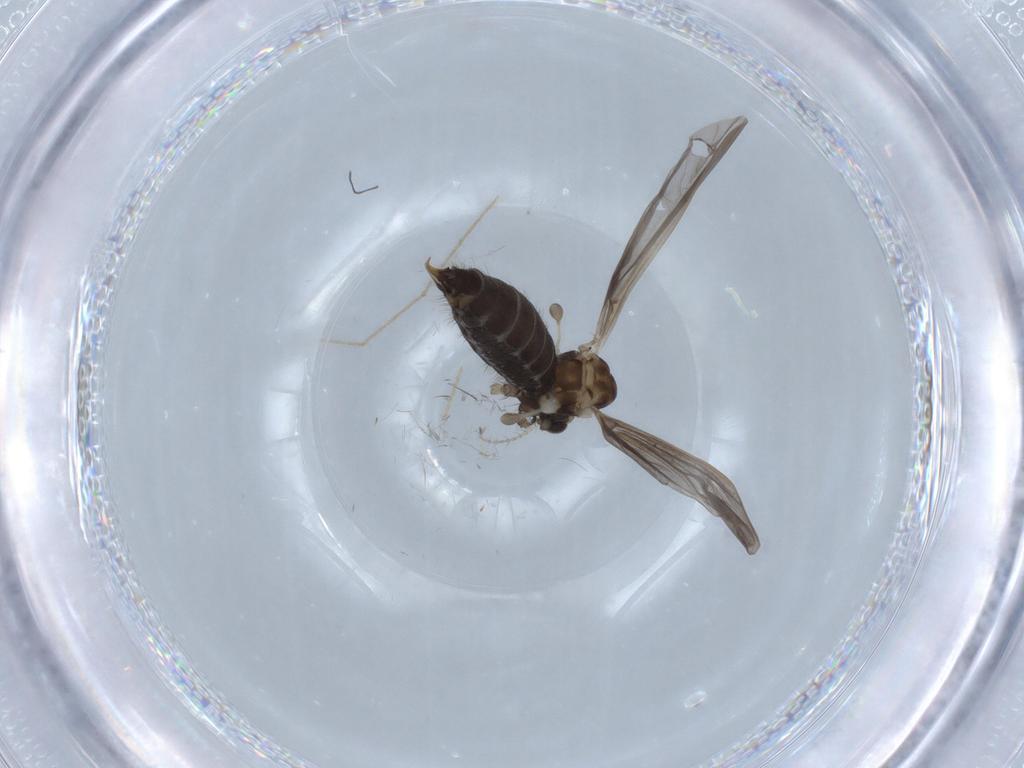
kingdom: Animalia
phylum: Arthropoda
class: Insecta
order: Diptera
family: Limoniidae
